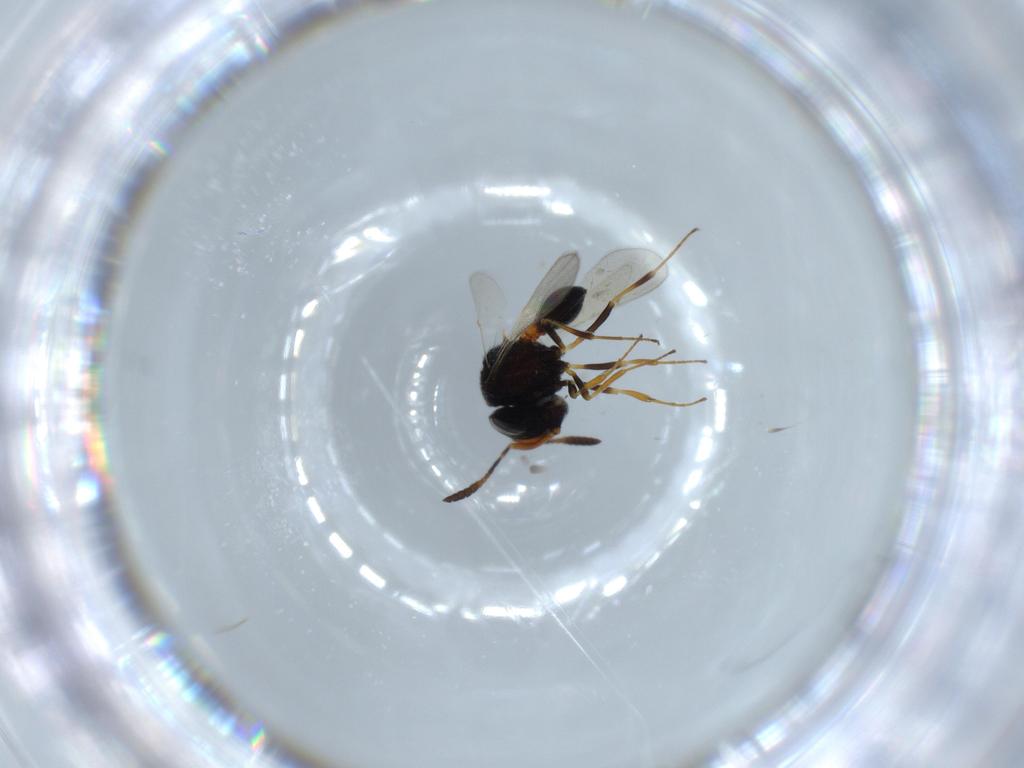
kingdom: Animalia
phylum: Arthropoda
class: Insecta
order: Hymenoptera
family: Scelionidae
